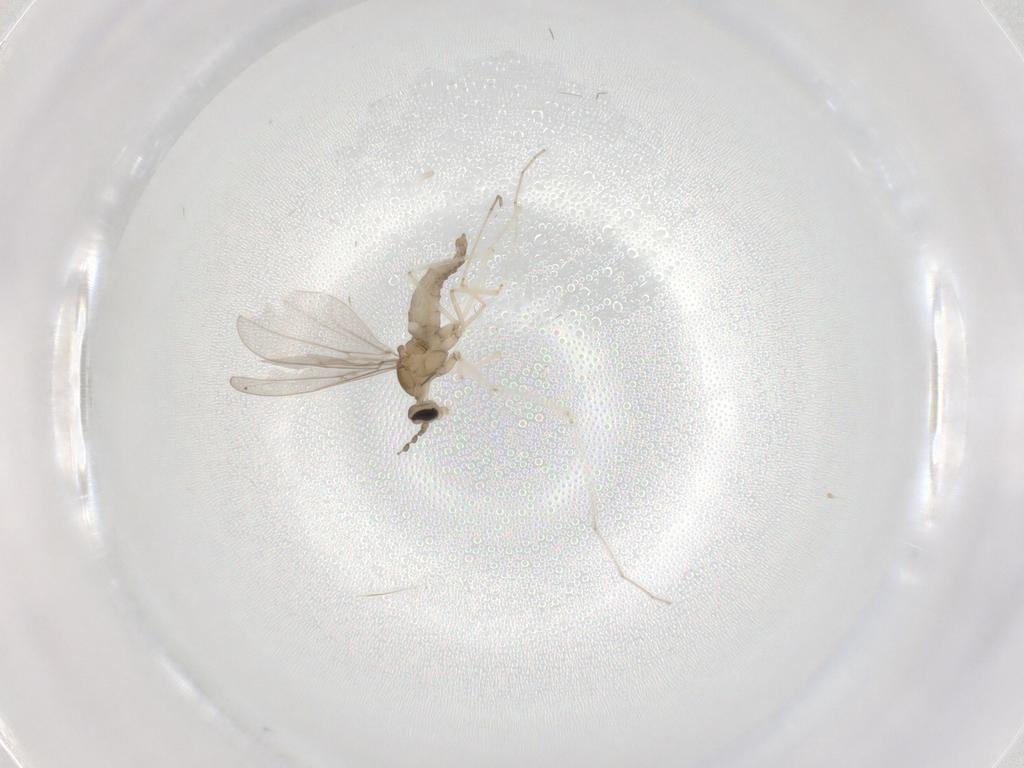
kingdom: Animalia
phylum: Arthropoda
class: Insecta
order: Diptera
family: Cecidomyiidae
